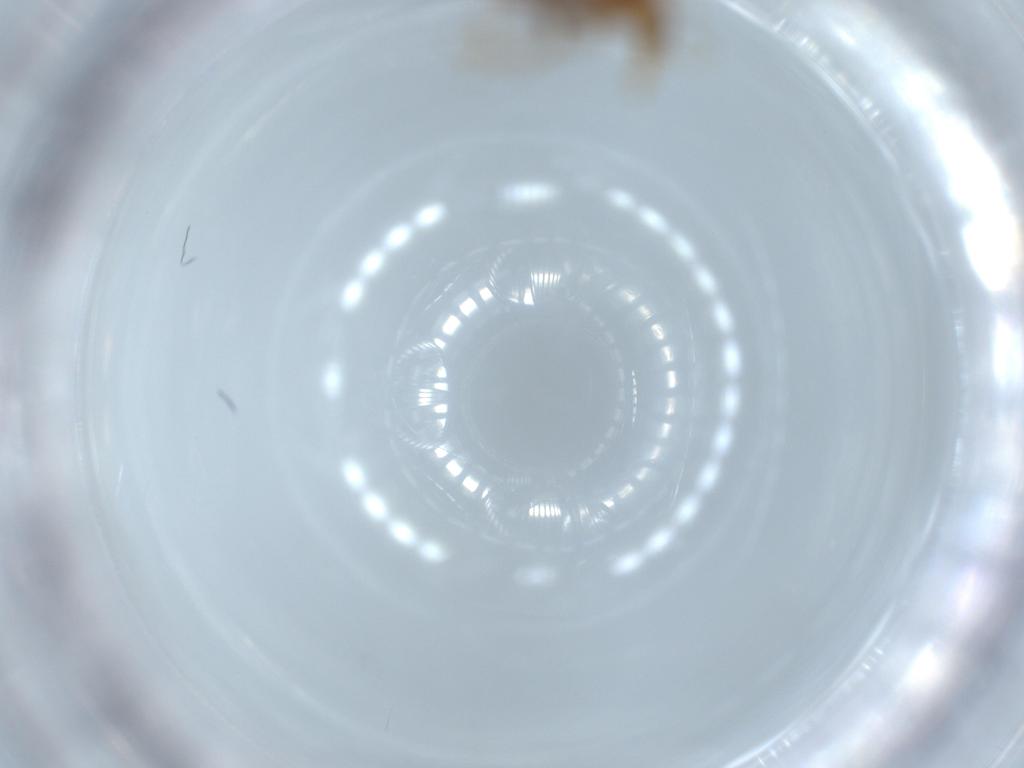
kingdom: Animalia
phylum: Arthropoda
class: Insecta
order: Coleoptera
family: Staphylinidae
